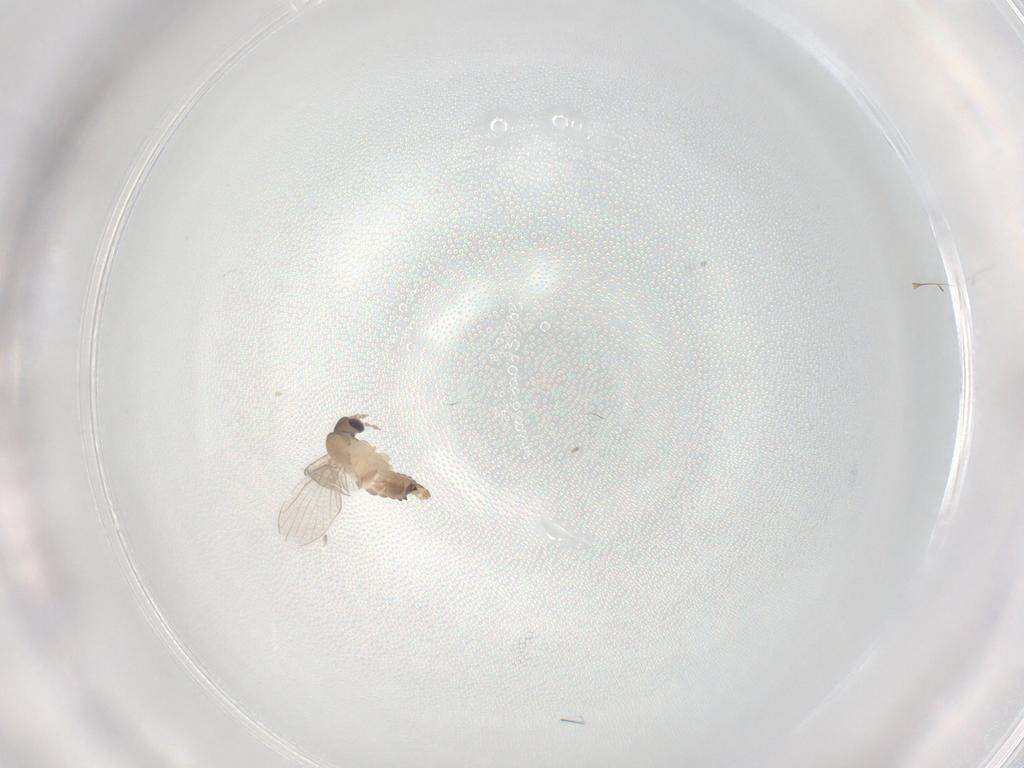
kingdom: Animalia
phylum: Arthropoda
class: Insecta
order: Diptera
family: Psychodidae
